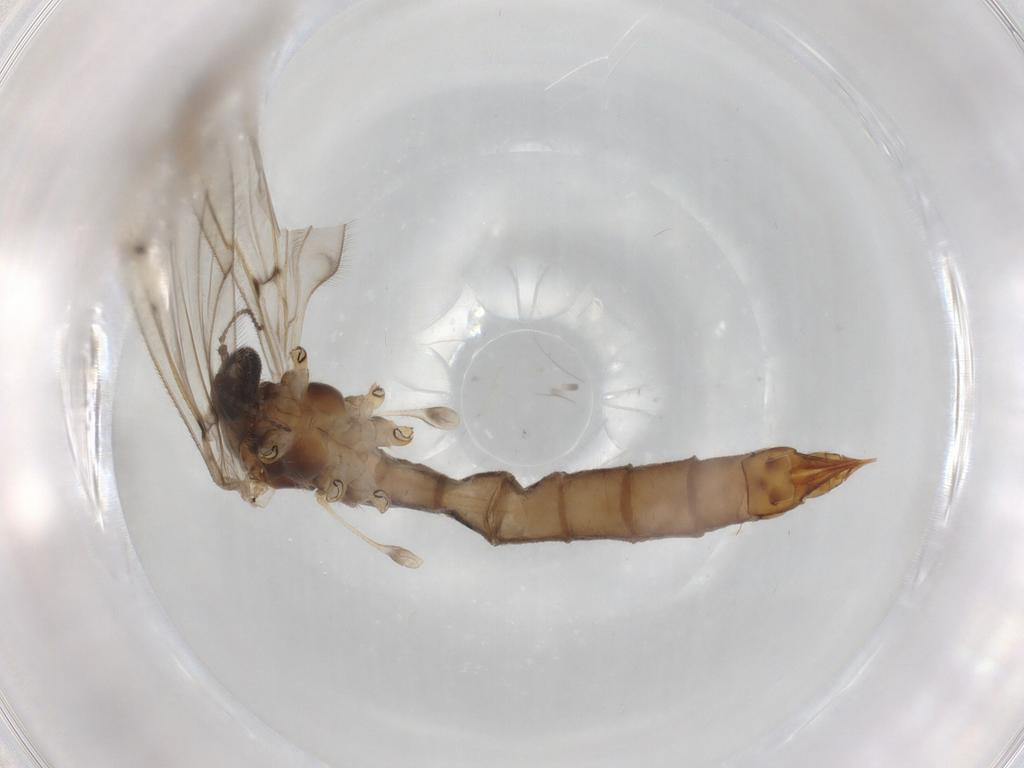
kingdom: Animalia
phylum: Arthropoda
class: Insecta
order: Diptera
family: Limoniidae
